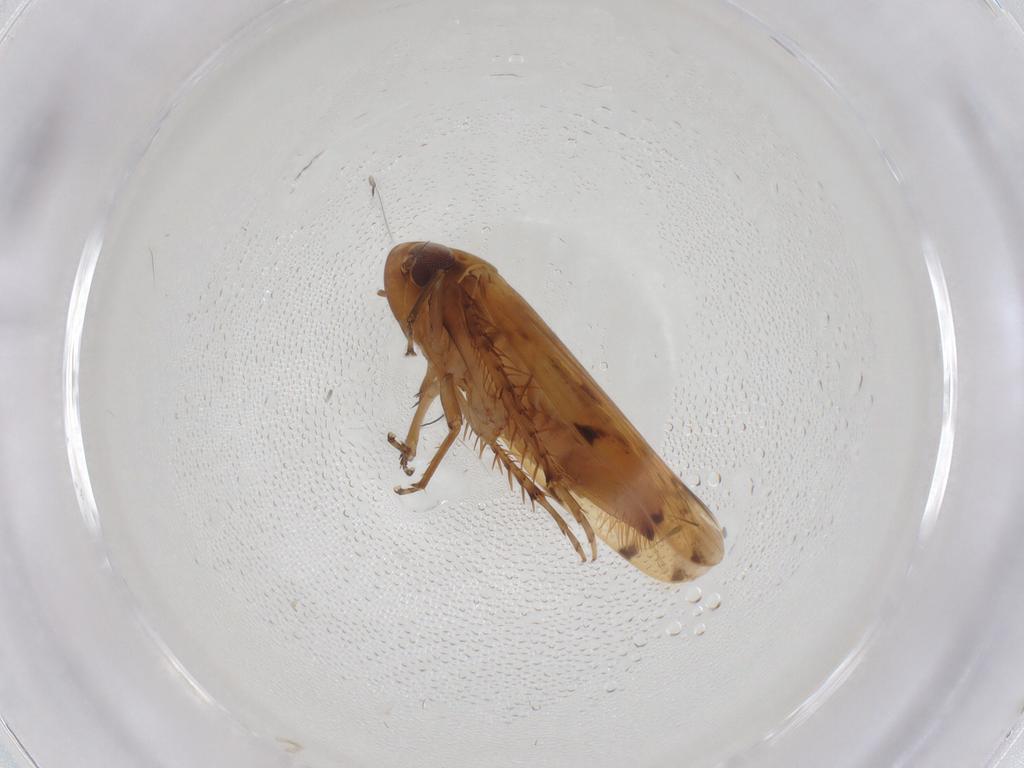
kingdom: Animalia
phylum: Arthropoda
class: Insecta
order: Hemiptera
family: Cicadellidae
